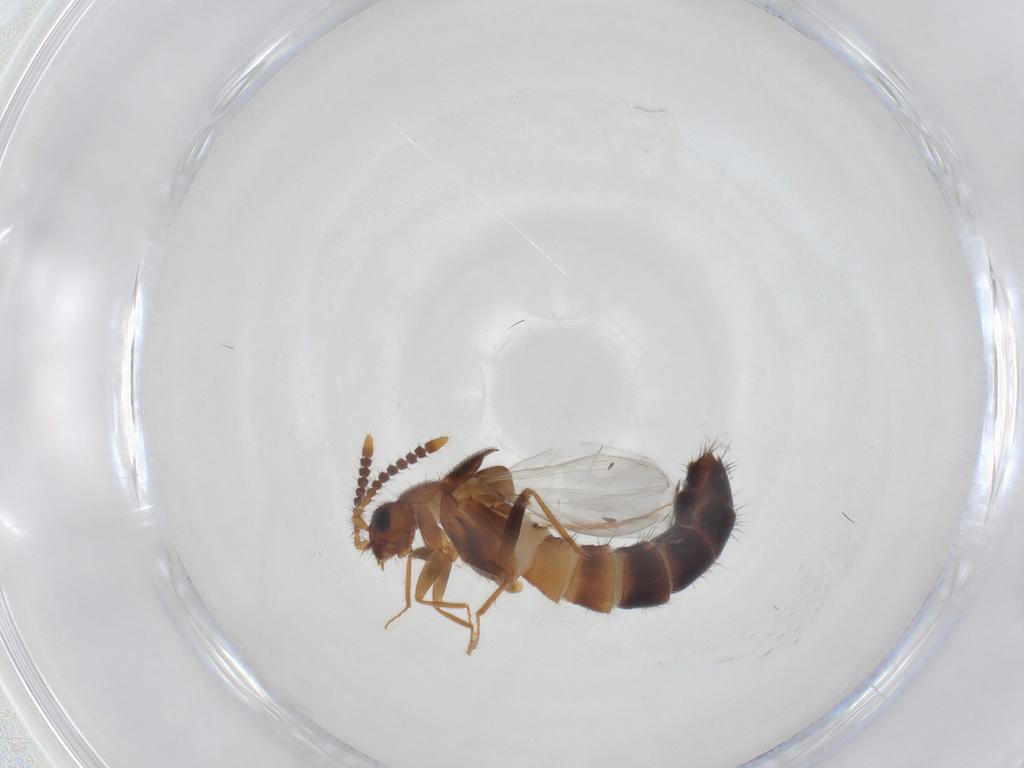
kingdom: Animalia
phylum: Arthropoda
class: Insecta
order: Coleoptera
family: Staphylinidae
